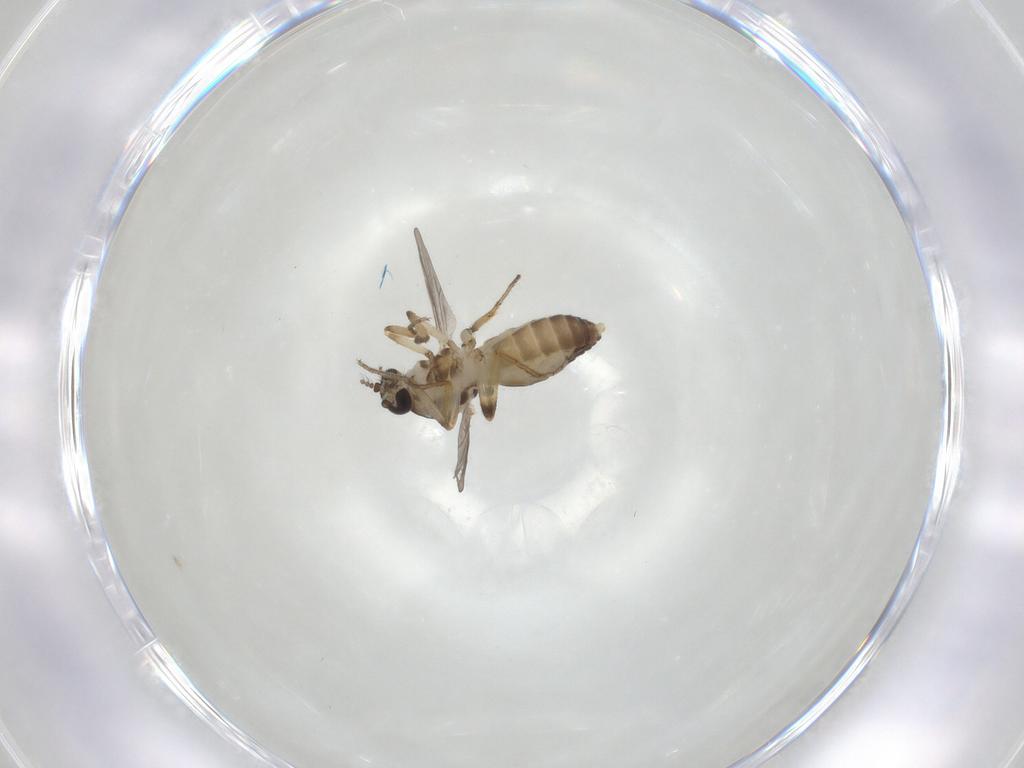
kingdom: Animalia
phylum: Arthropoda
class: Insecta
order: Diptera
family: Ceratopogonidae
